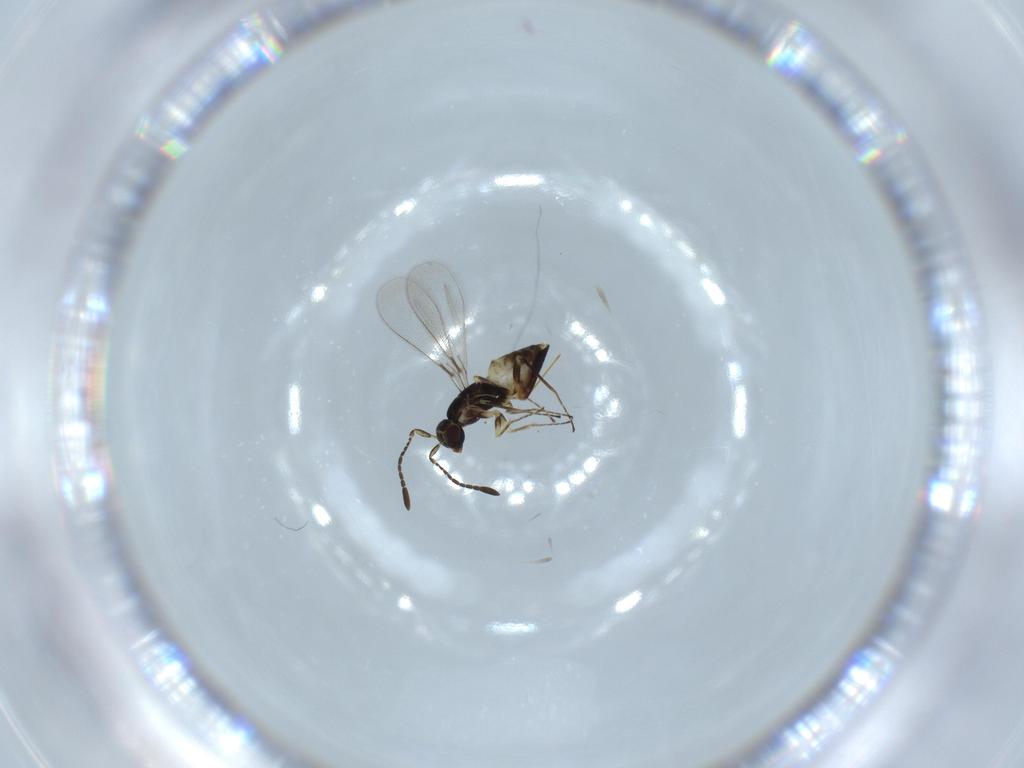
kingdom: Animalia
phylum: Arthropoda
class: Insecta
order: Hymenoptera
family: Mymaridae
